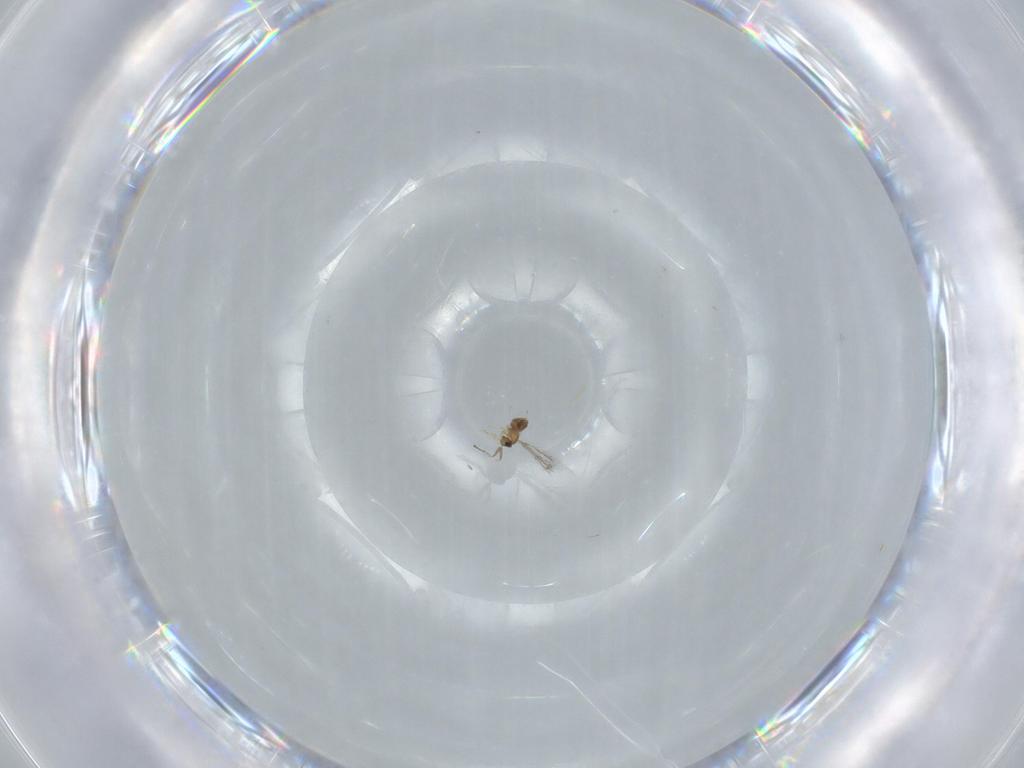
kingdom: Animalia
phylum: Arthropoda
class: Insecta
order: Hymenoptera
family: Mymaridae
